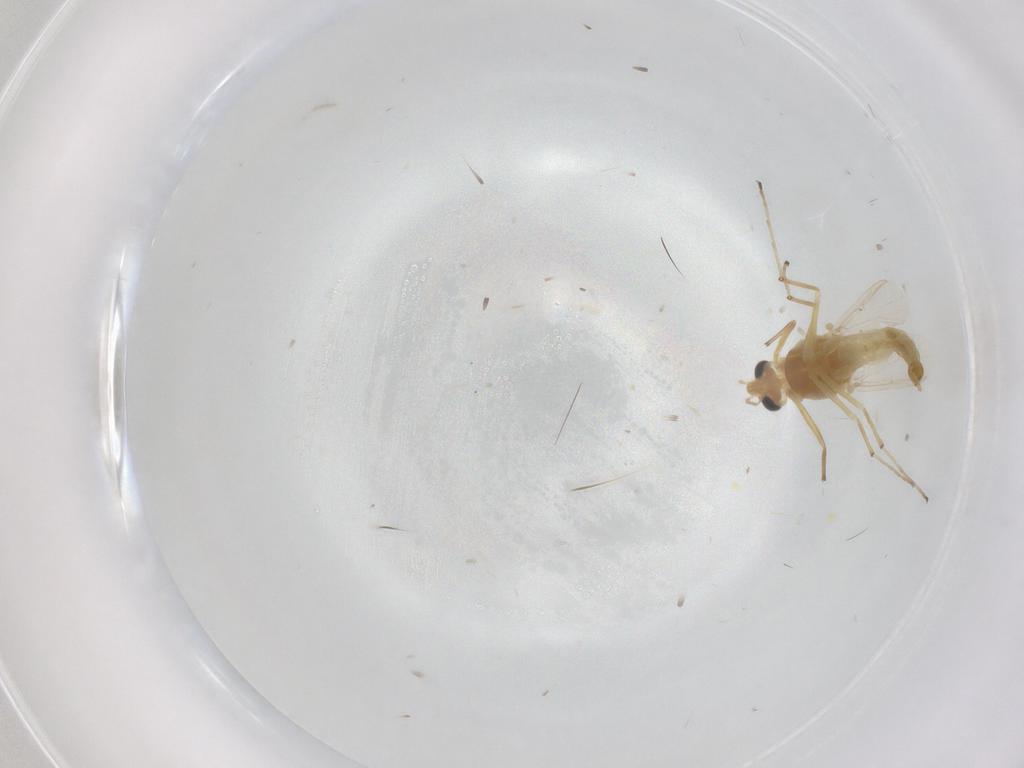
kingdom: Animalia
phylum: Arthropoda
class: Insecta
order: Diptera
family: Chironomidae
